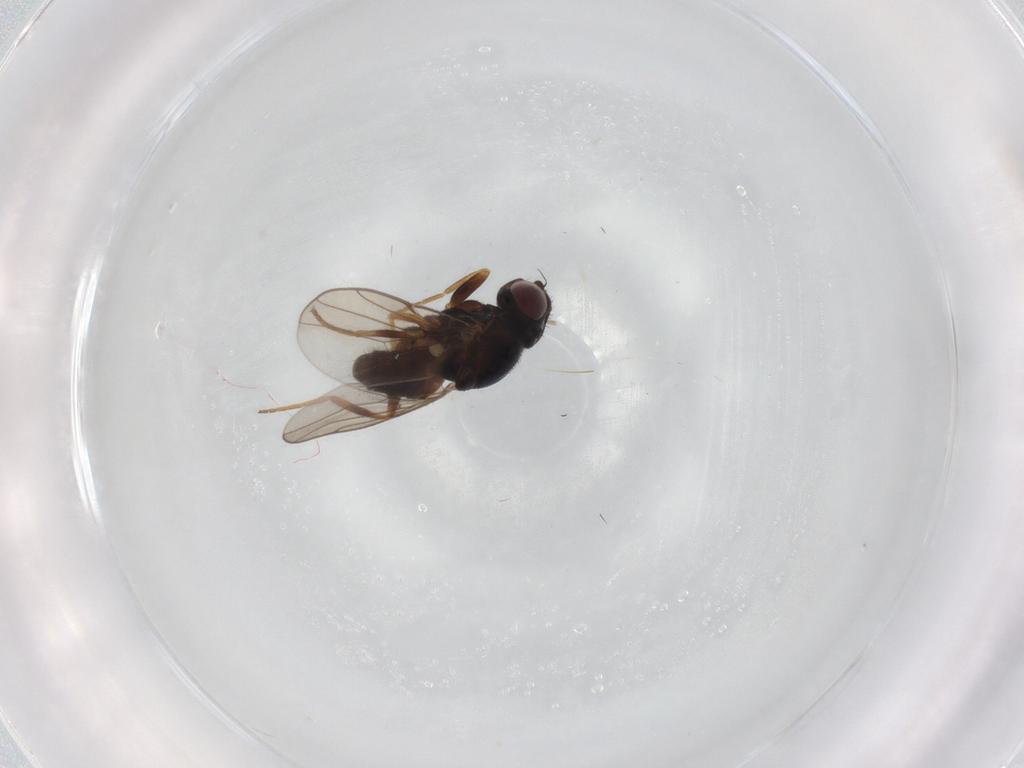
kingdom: Animalia
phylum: Arthropoda
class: Insecta
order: Diptera
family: Chloropidae
